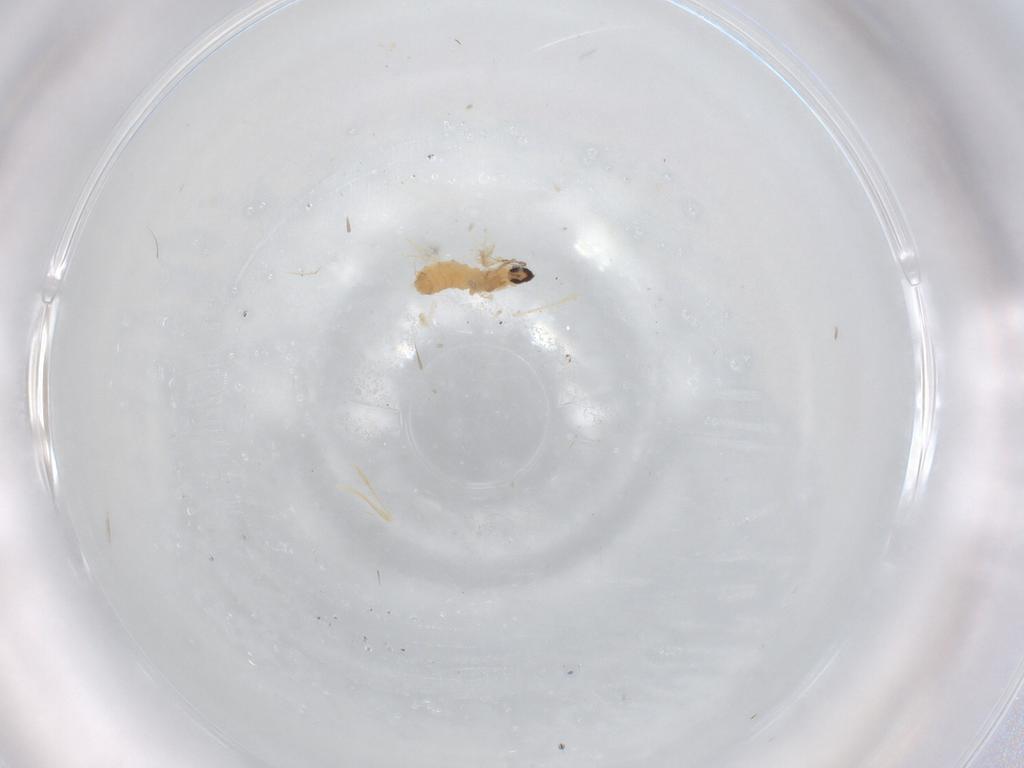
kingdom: Animalia
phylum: Arthropoda
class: Insecta
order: Diptera
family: Cecidomyiidae
